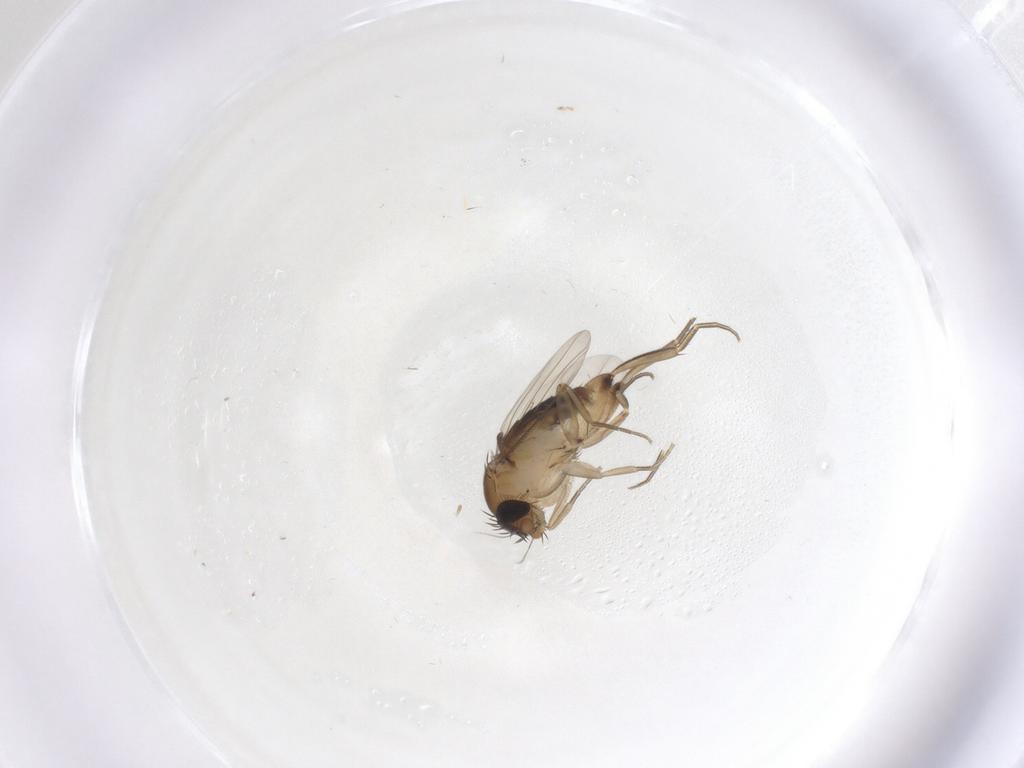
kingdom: Animalia
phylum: Arthropoda
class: Insecta
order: Diptera
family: Phoridae
